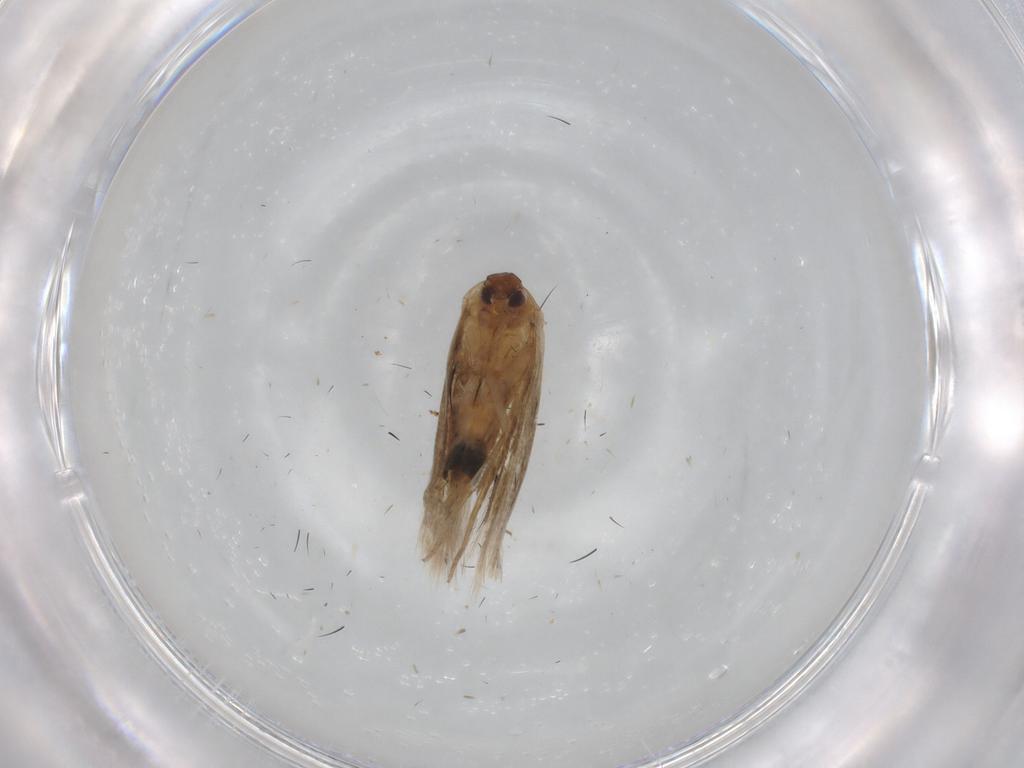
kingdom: Animalia
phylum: Arthropoda
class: Insecta
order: Lepidoptera
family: Cosmopterigidae
